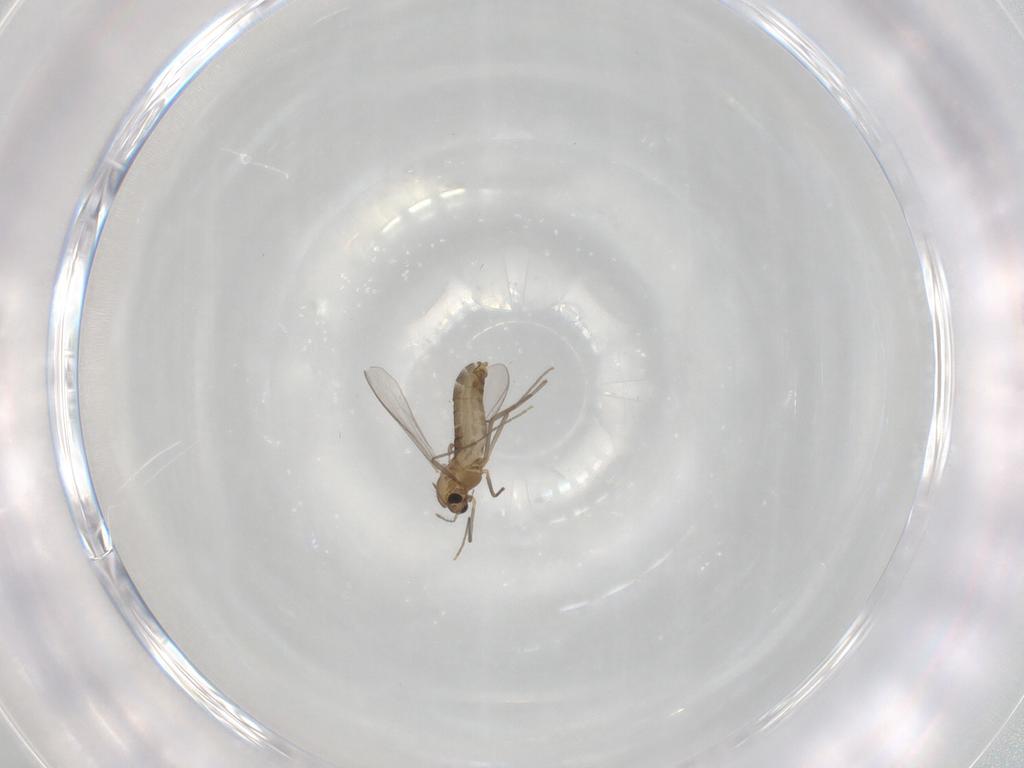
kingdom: Animalia
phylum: Arthropoda
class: Insecta
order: Diptera
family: Chironomidae
